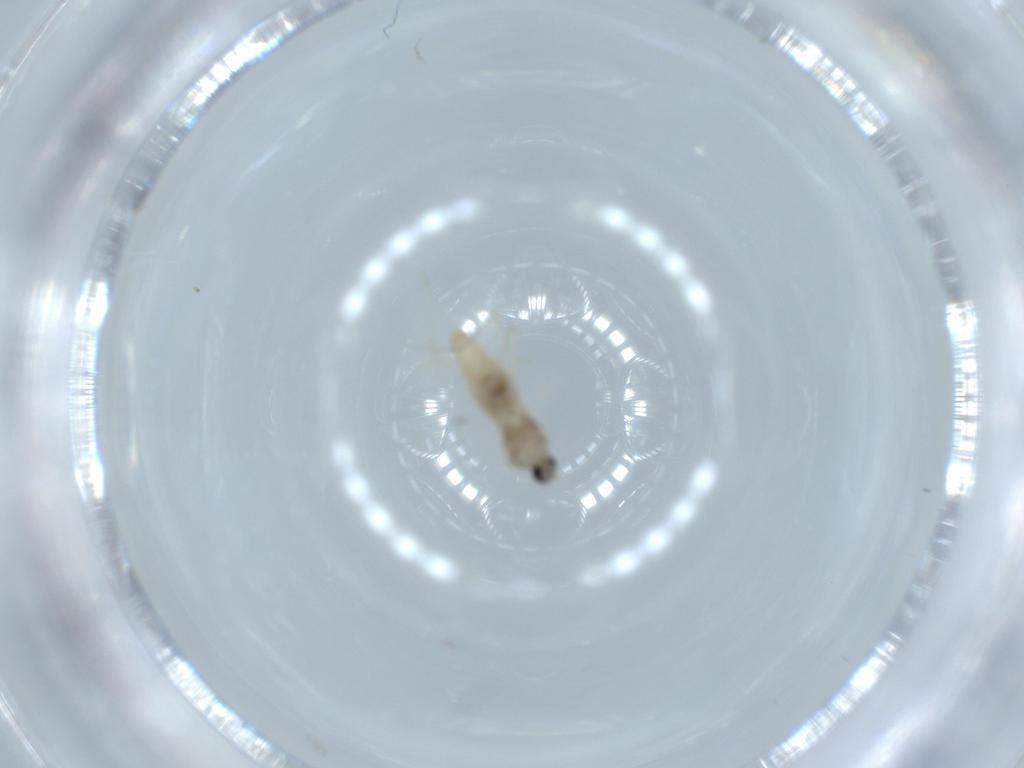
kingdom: Animalia
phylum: Arthropoda
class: Insecta
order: Diptera
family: Cecidomyiidae
